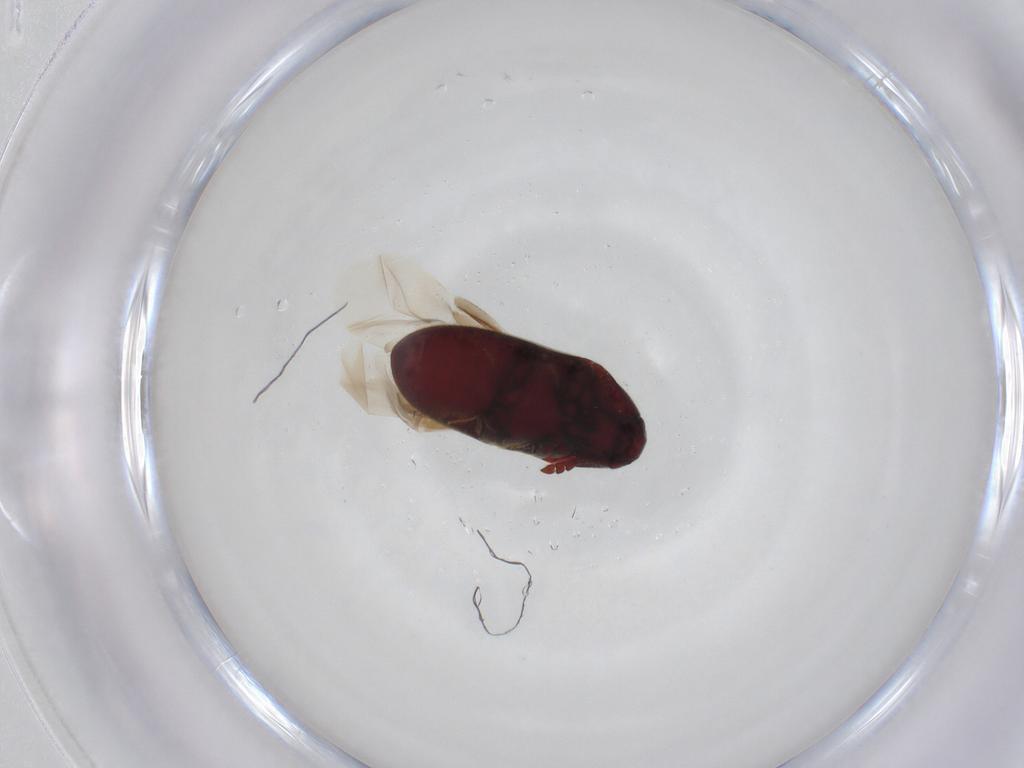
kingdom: Animalia
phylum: Arthropoda
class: Insecta
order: Coleoptera
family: Throscidae
